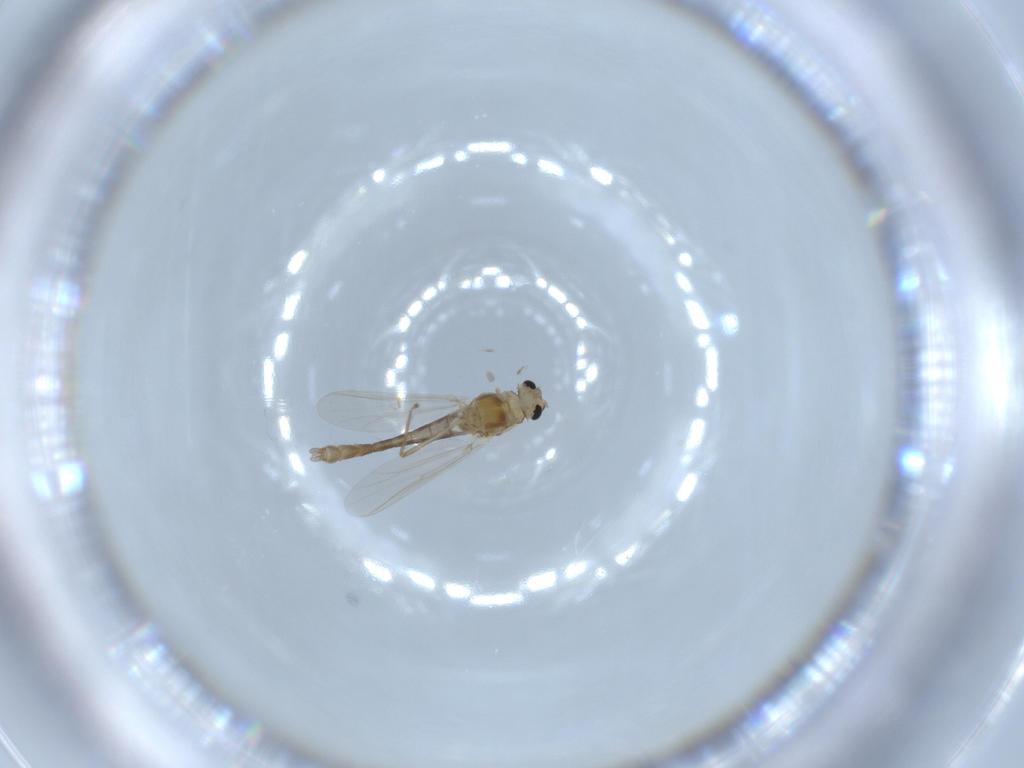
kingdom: Animalia
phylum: Arthropoda
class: Insecta
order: Diptera
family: Chironomidae
